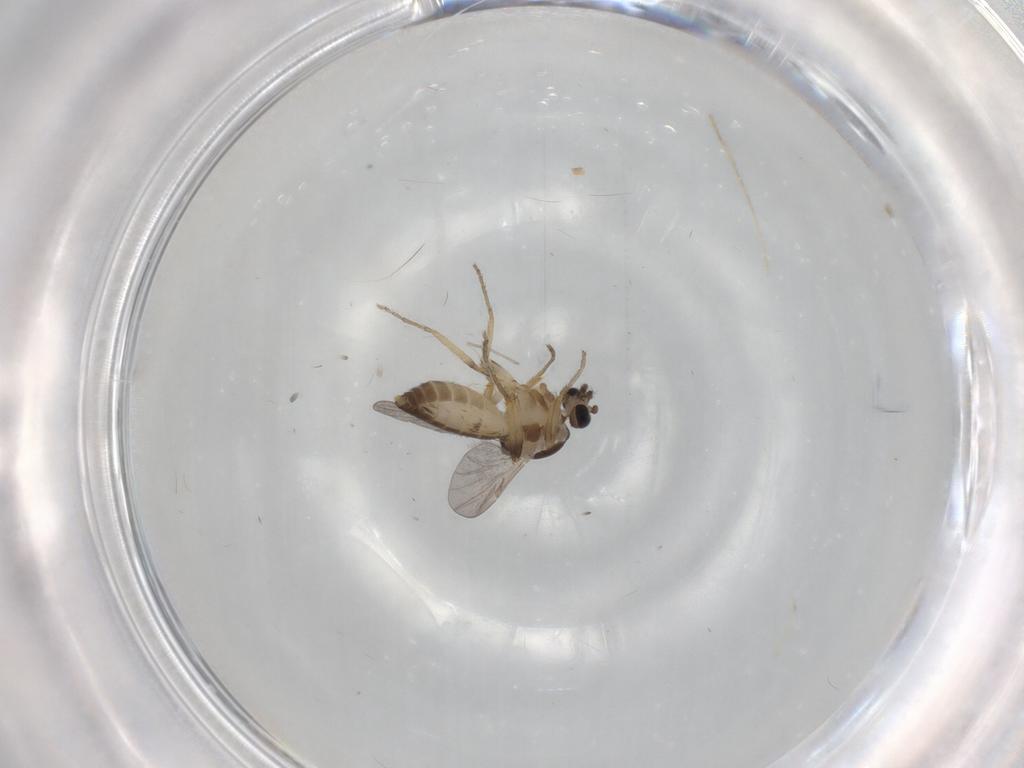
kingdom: Animalia
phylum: Arthropoda
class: Insecta
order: Diptera
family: Ceratopogonidae
